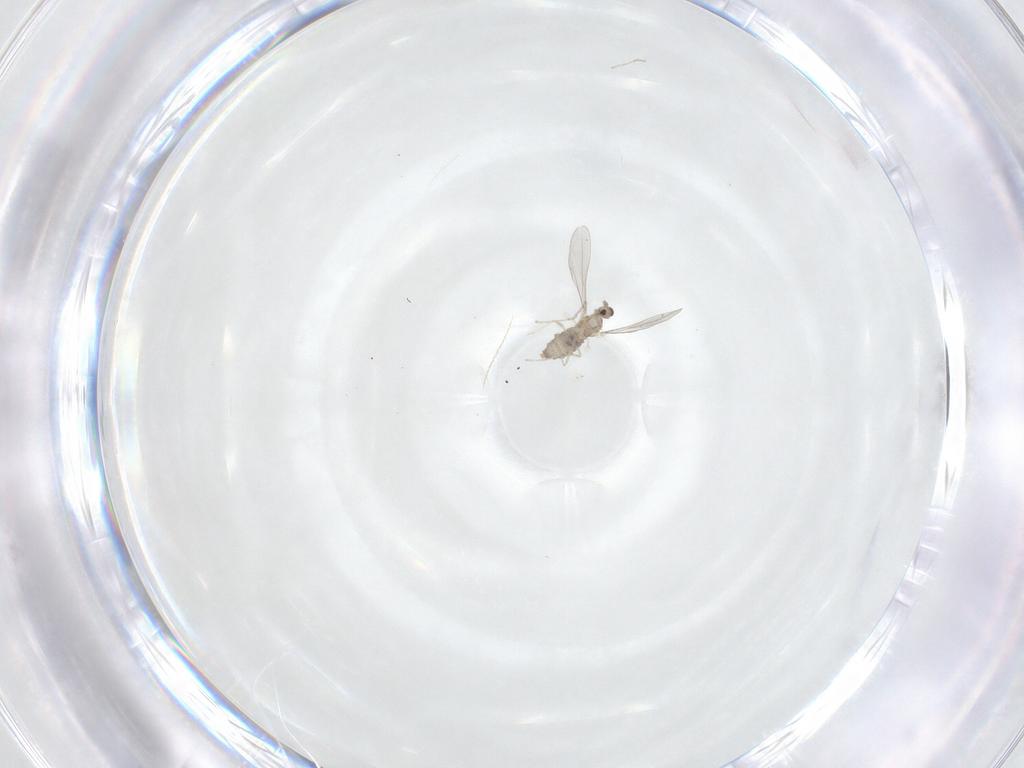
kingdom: Animalia
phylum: Arthropoda
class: Insecta
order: Diptera
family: Cecidomyiidae
